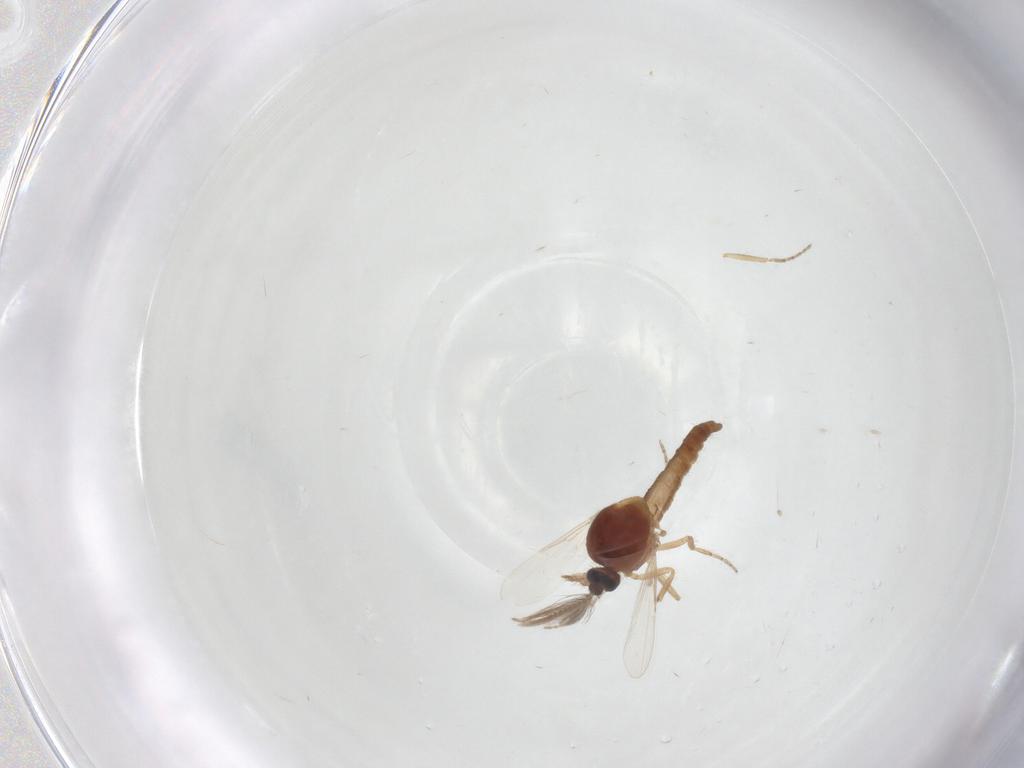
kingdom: Animalia
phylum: Arthropoda
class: Insecta
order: Diptera
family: Ceratopogonidae
